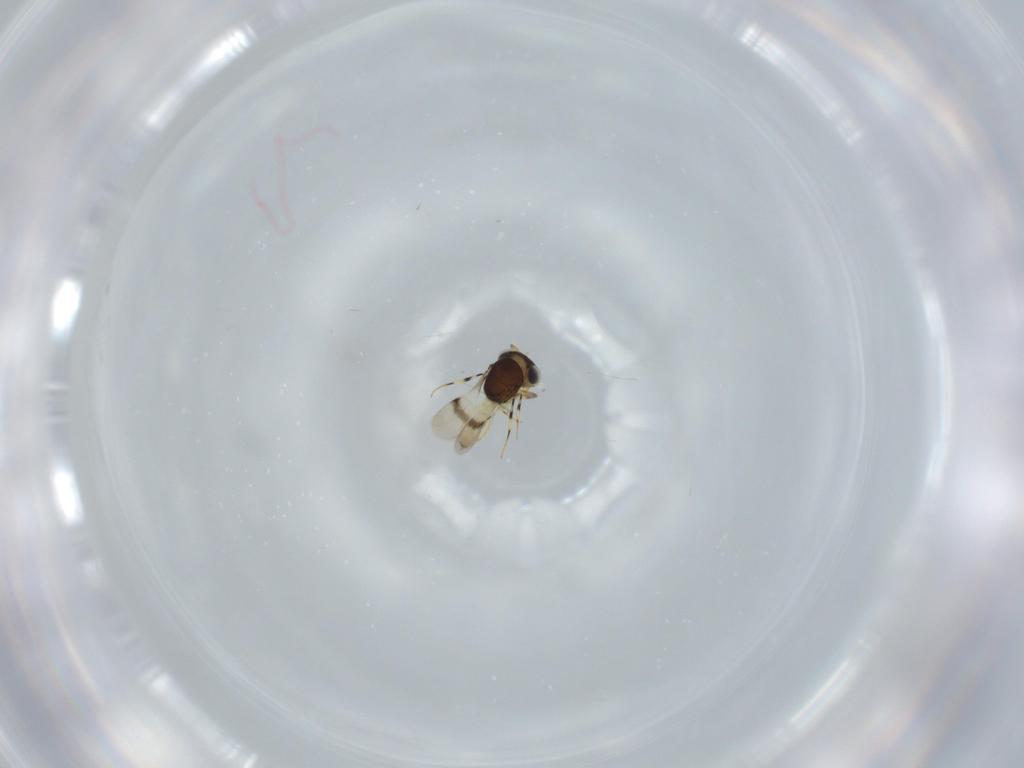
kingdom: Animalia
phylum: Arthropoda
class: Insecta
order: Hymenoptera
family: Scelionidae
